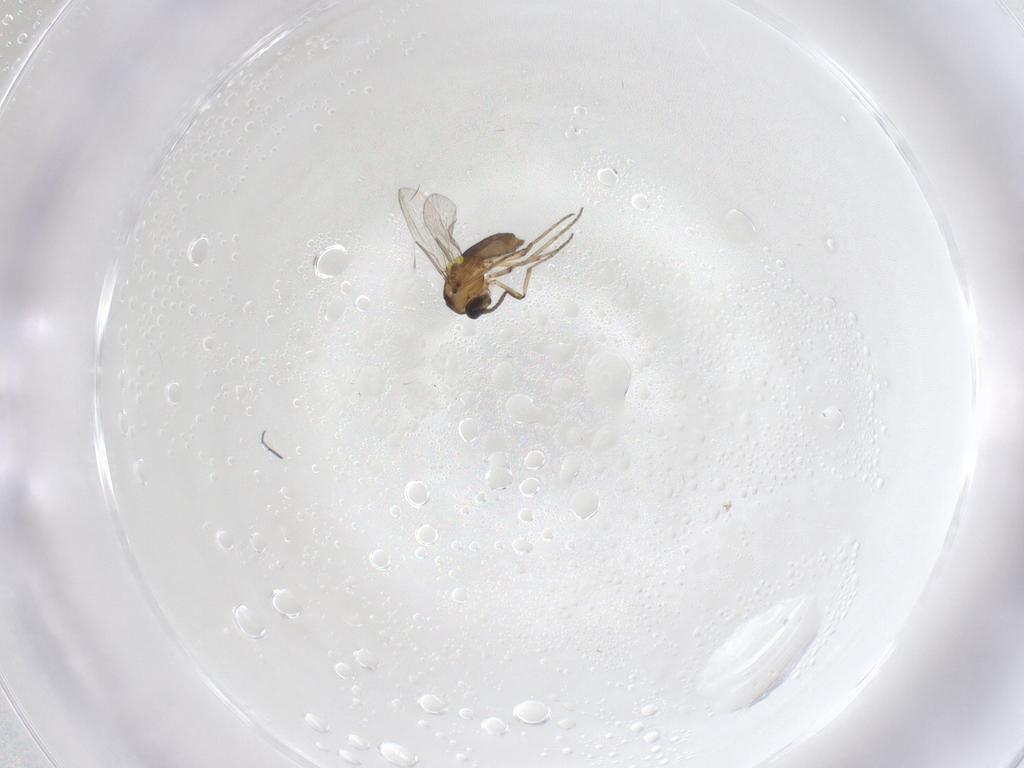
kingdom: Animalia
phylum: Arthropoda
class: Insecta
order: Diptera
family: Ceratopogonidae
